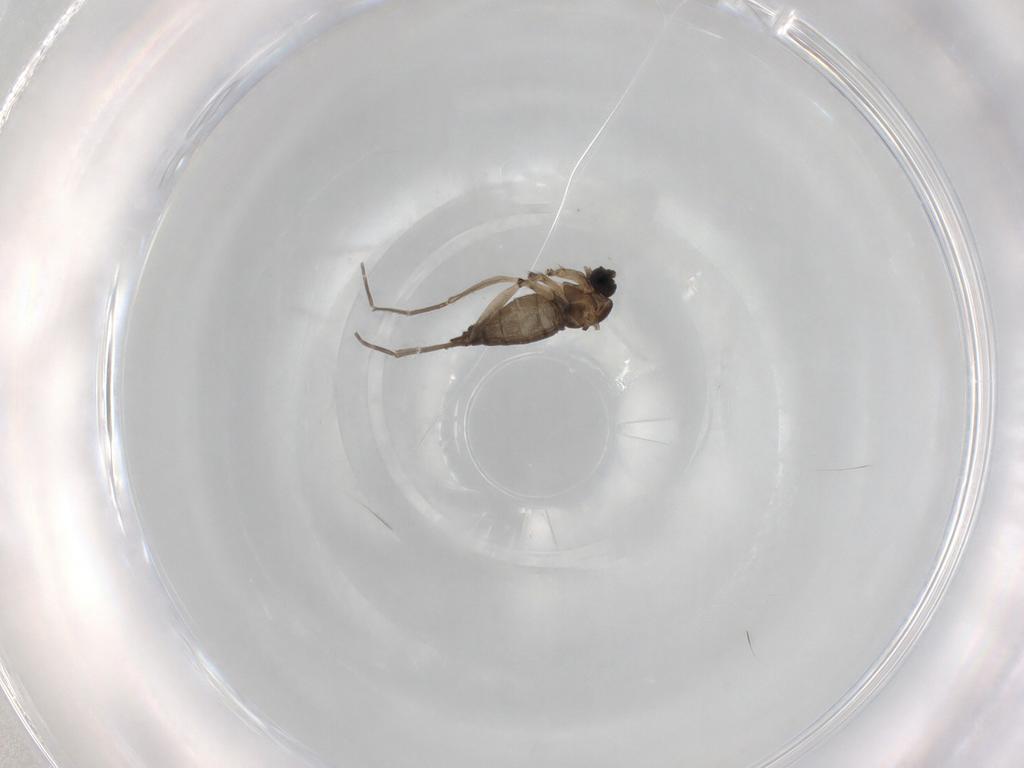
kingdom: Animalia
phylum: Arthropoda
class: Insecta
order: Diptera
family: Sciaridae
